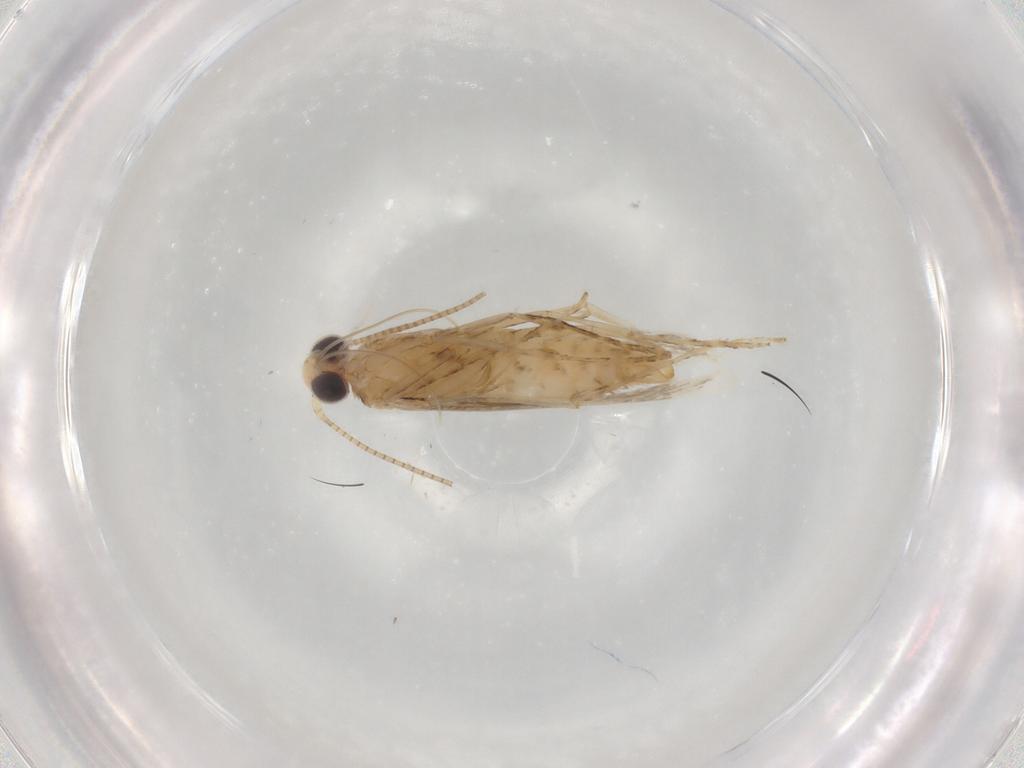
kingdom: Animalia
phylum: Arthropoda
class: Insecta
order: Lepidoptera
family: Gracillariidae
